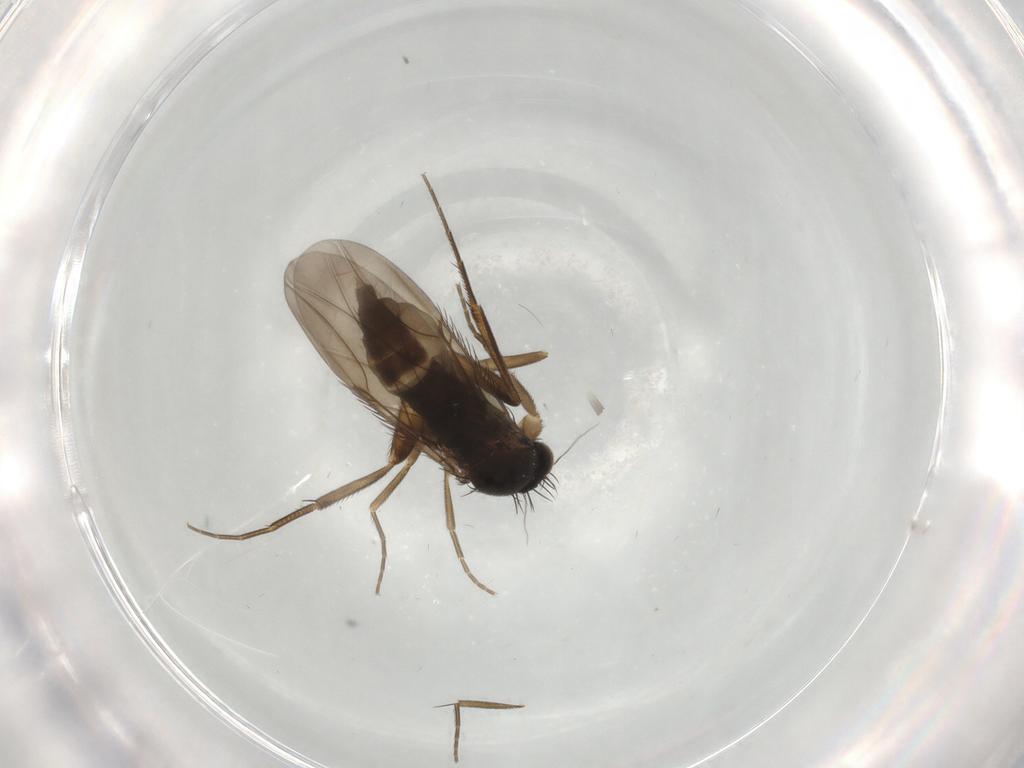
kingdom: Animalia
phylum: Arthropoda
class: Insecta
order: Diptera
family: Phoridae
